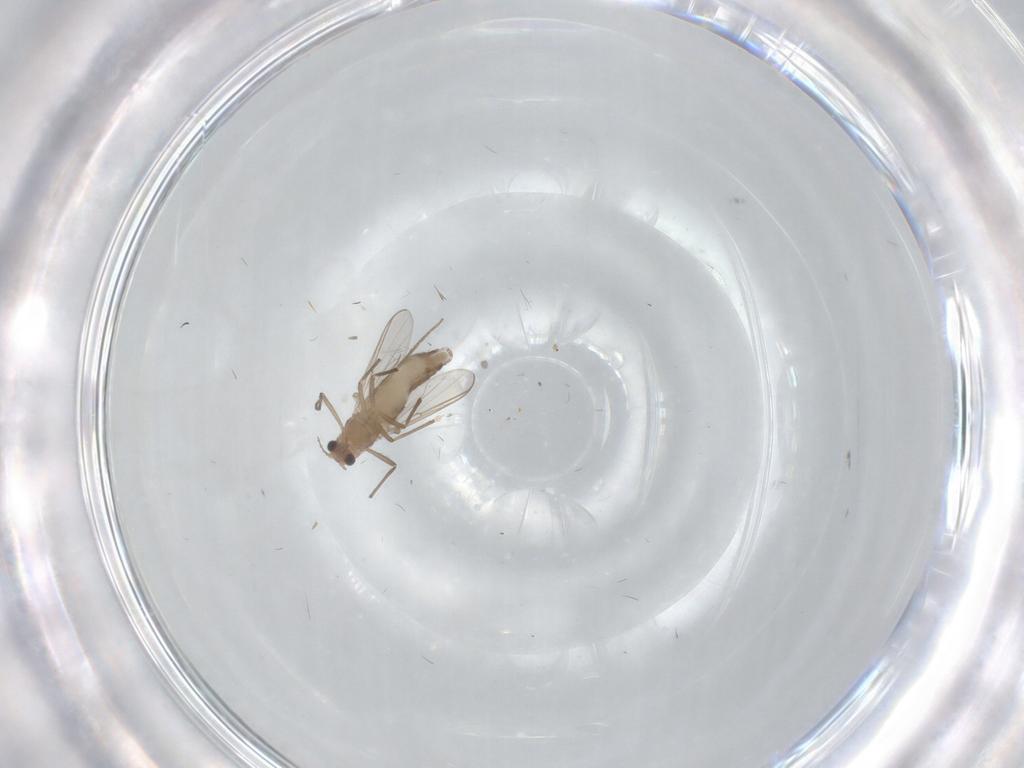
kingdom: Animalia
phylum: Arthropoda
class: Insecta
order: Diptera
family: Chironomidae
